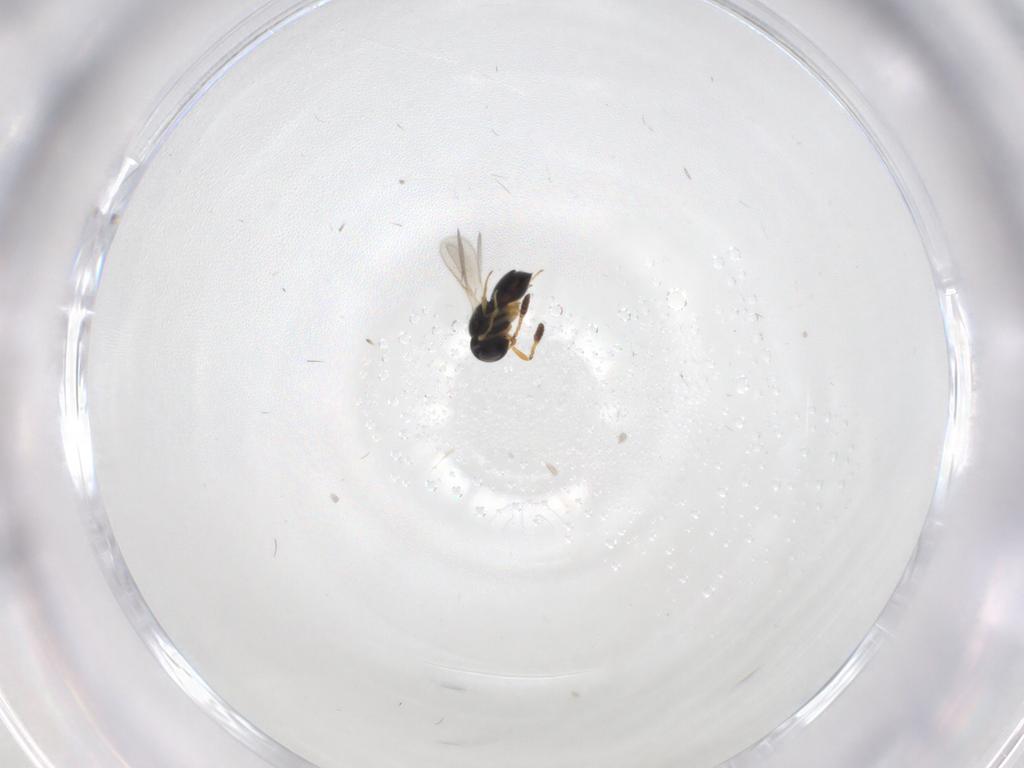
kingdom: Animalia
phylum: Arthropoda
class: Insecta
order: Hymenoptera
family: Formicidae
